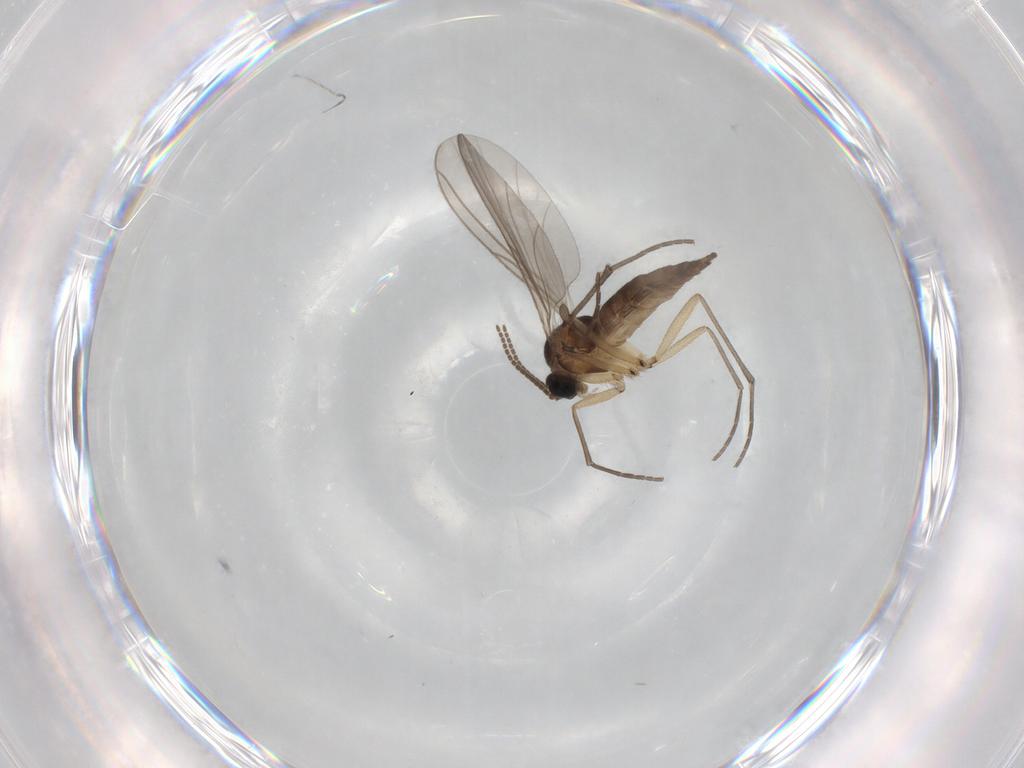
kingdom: Animalia
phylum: Arthropoda
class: Insecta
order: Diptera
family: Sciaridae
